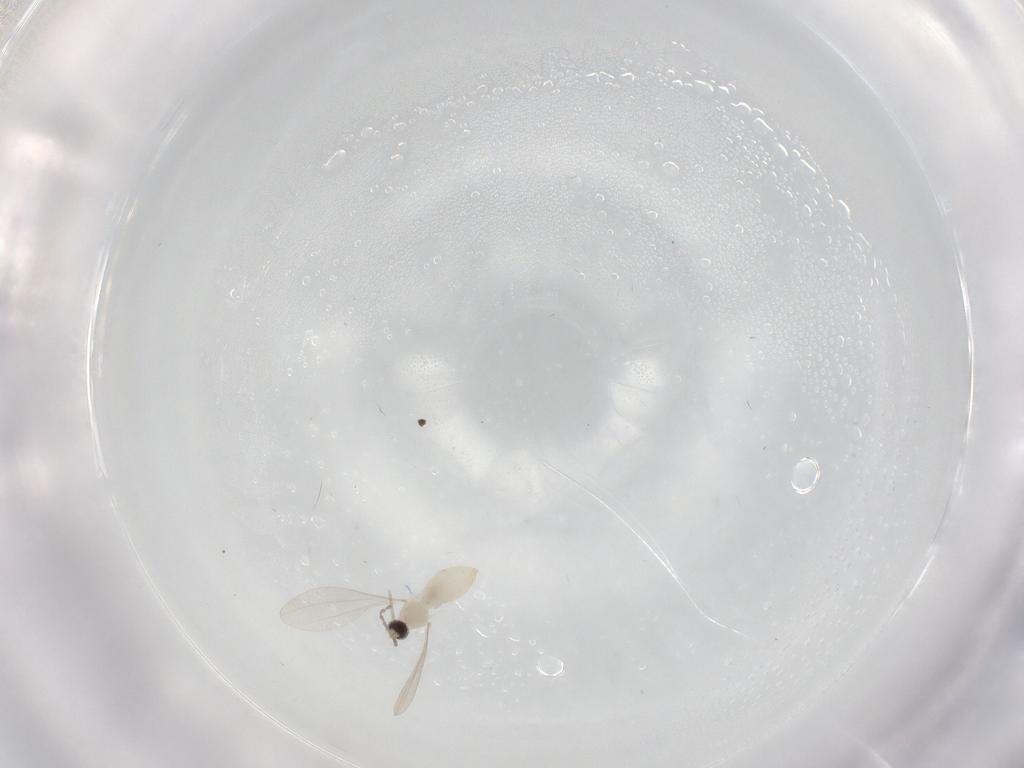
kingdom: Animalia
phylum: Arthropoda
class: Insecta
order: Diptera
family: Cecidomyiidae
